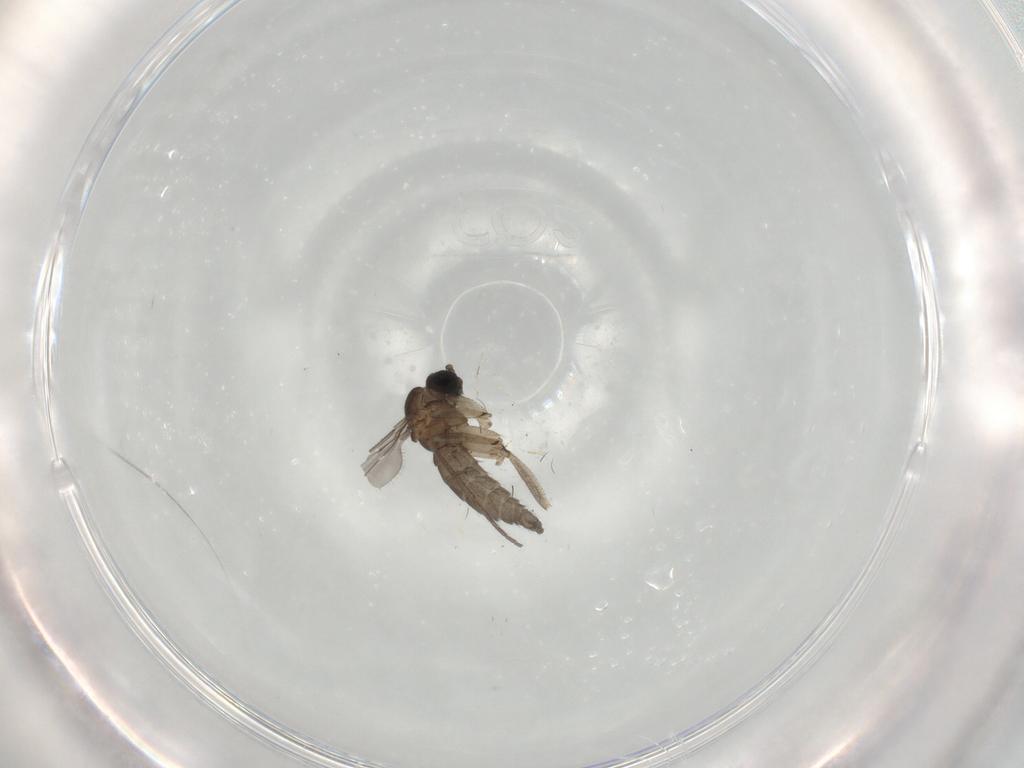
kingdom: Animalia
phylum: Arthropoda
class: Insecta
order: Diptera
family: Sciaridae
